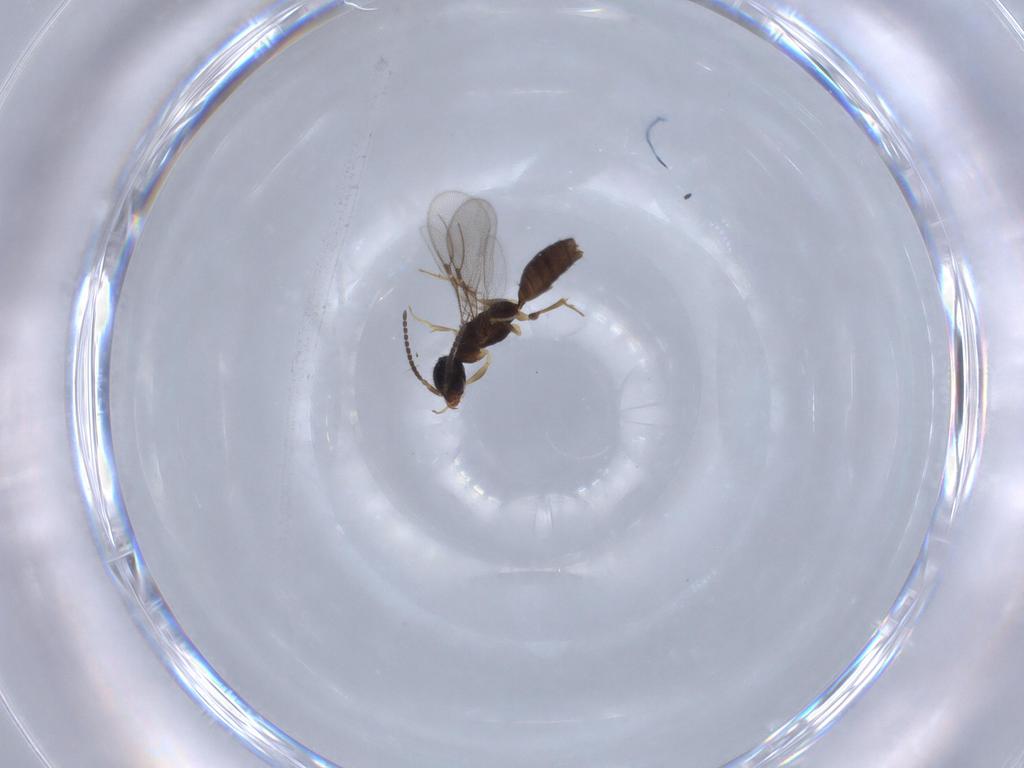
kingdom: Animalia
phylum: Arthropoda
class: Insecta
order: Hymenoptera
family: Bethylidae
